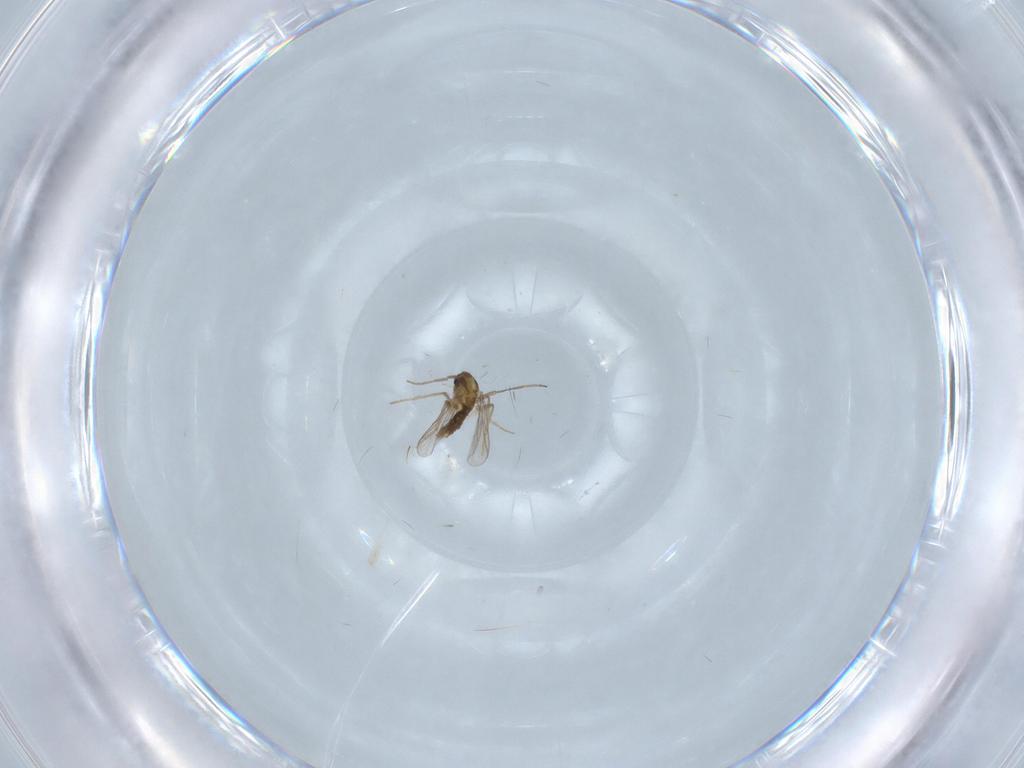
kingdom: Animalia
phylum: Arthropoda
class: Insecta
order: Diptera
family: Chironomidae
